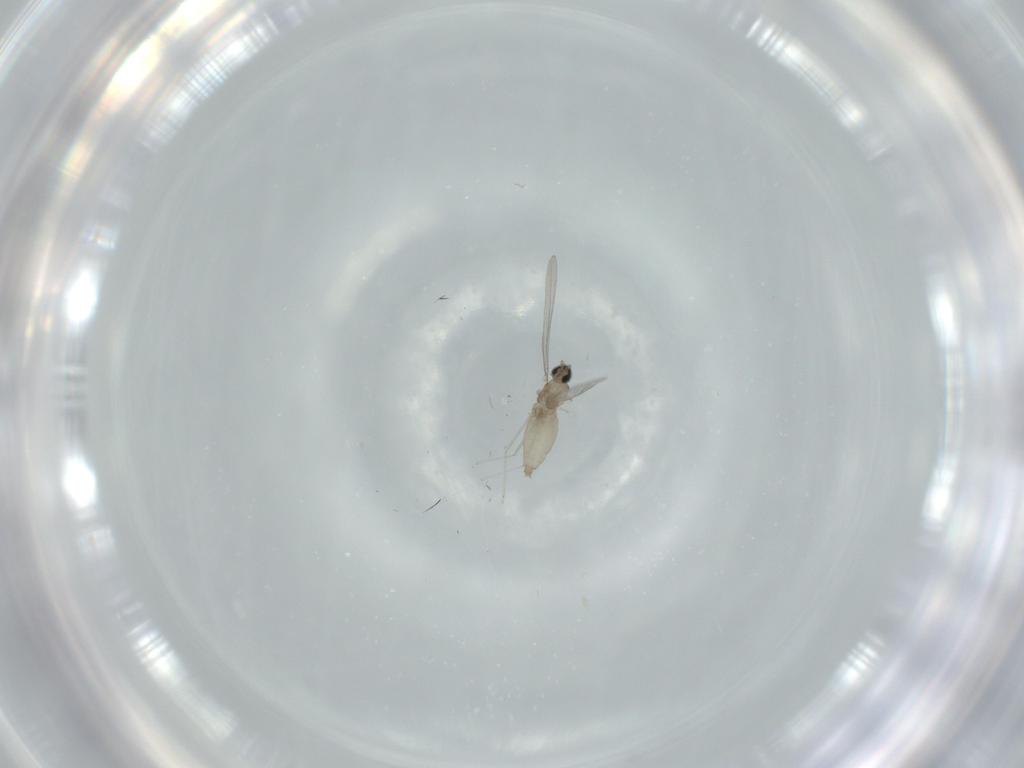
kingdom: Animalia
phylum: Arthropoda
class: Insecta
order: Diptera
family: Cecidomyiidae
